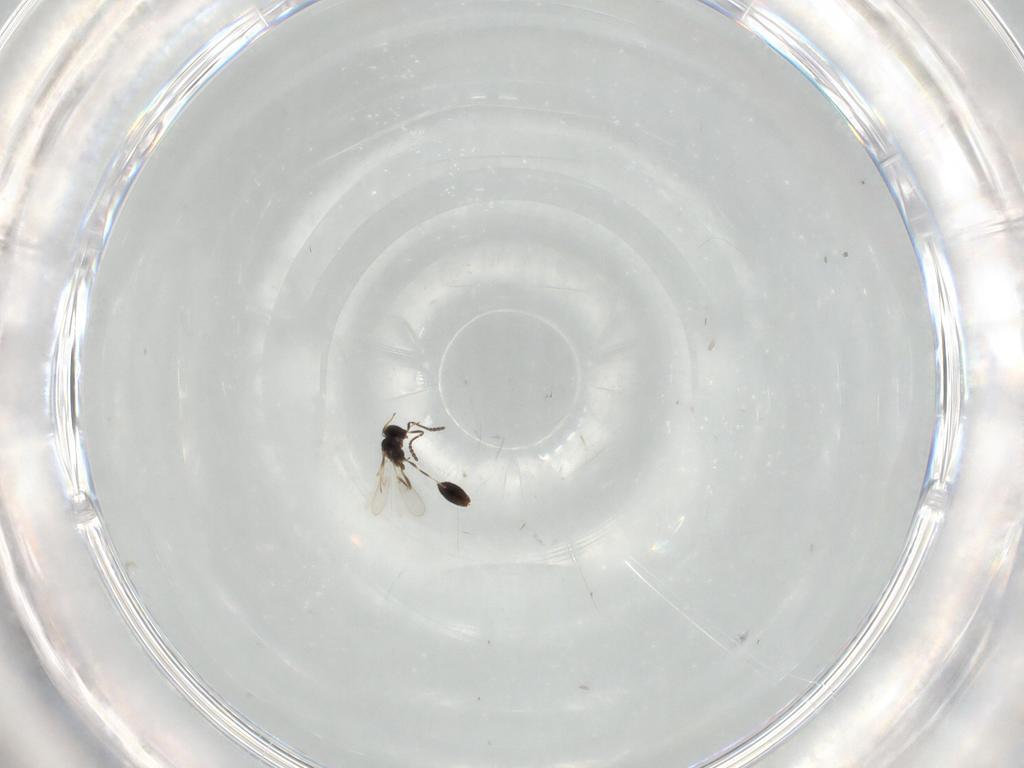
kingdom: Animalia
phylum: Arthropoda
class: Insecta
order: Hymenoptera
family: Scelionidae
